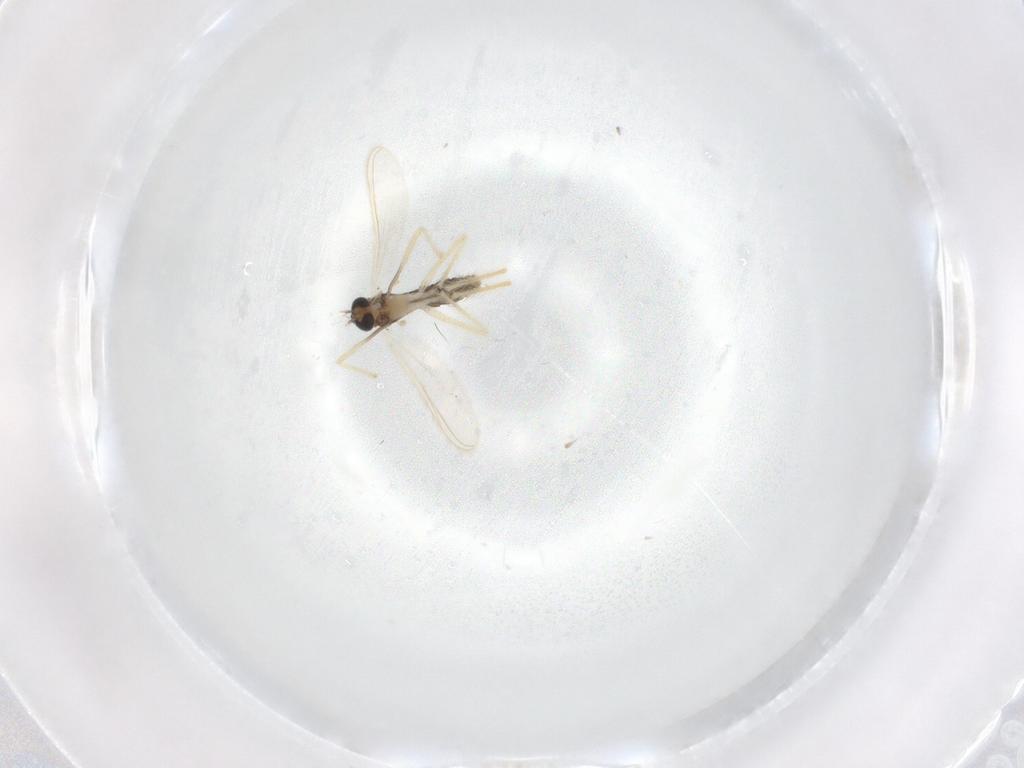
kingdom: Animalia
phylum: Arthropoda
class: Insecta
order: Diptera
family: Chironomidae
